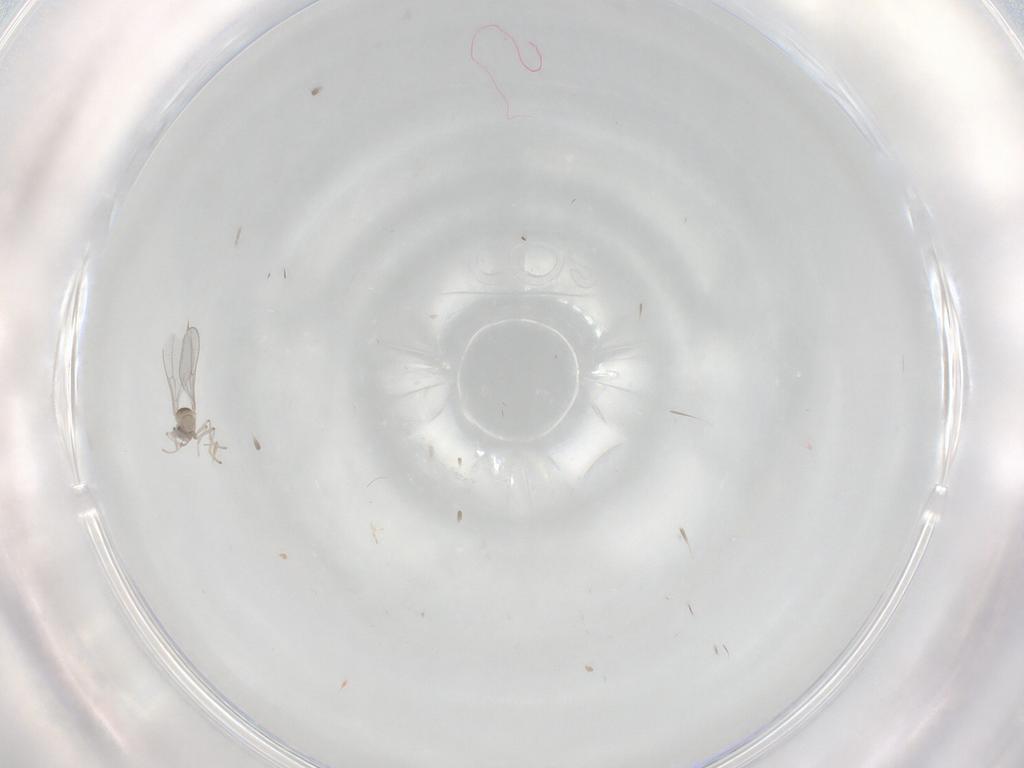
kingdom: Animalia
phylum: Arthropoda
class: Insecta
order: Diptera
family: Cecidomyiidae
